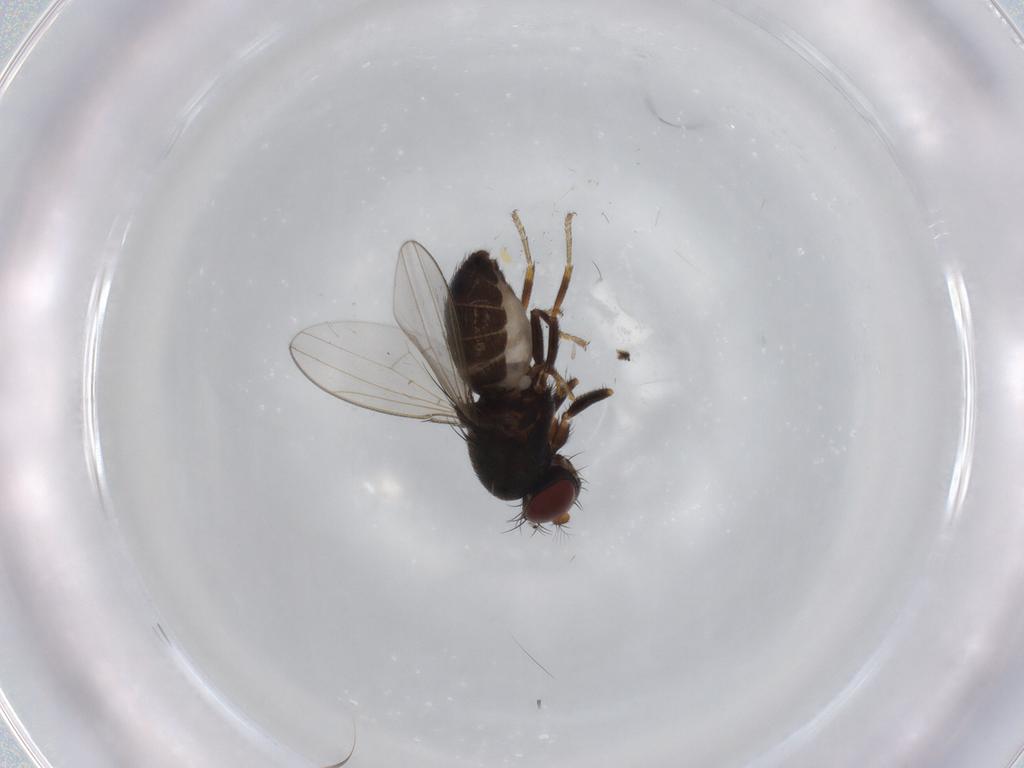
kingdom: Animalia
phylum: Arthropoda
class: Insecta
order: Diptera
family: Ephydridae
